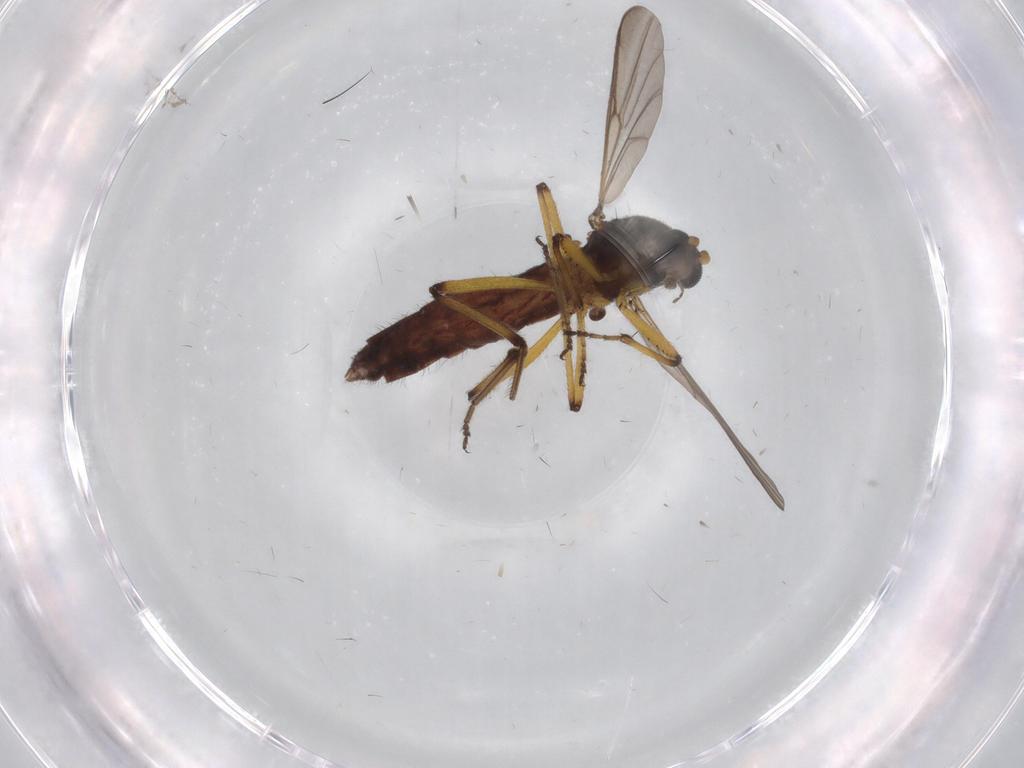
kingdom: Animalia
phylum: Arthropoda
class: Insecta
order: Diptera
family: Ceratopogonidae
